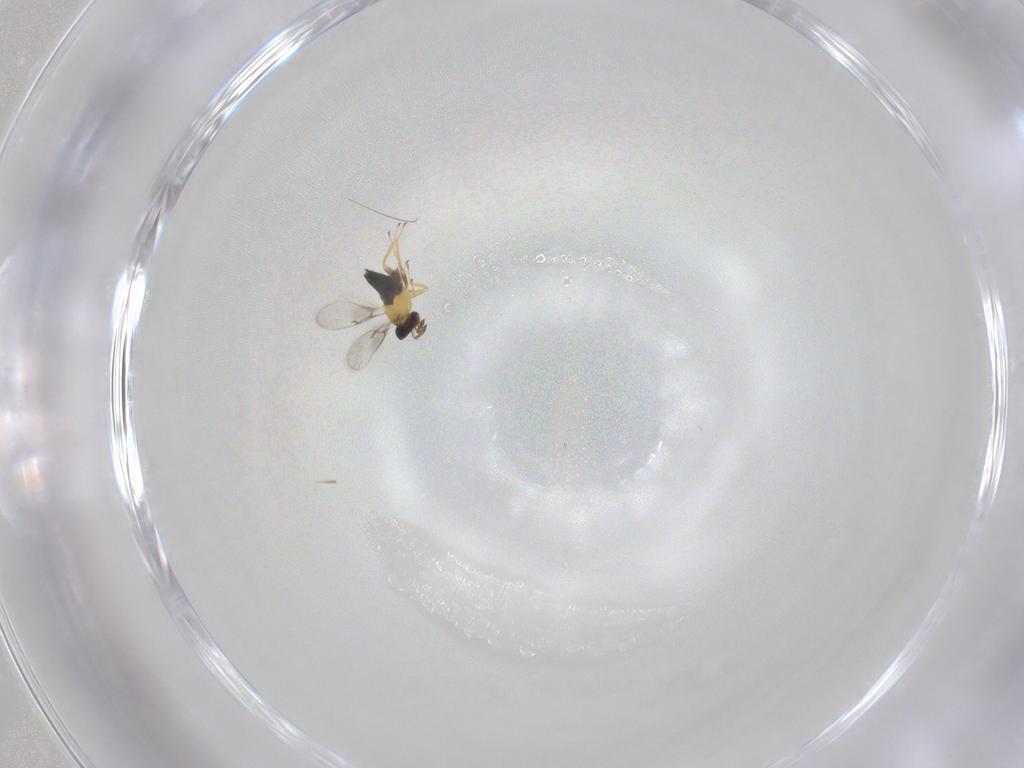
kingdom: Animalia
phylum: Arthropoda
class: Insecta
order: Hymenoptera
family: Trichogrammatidae
